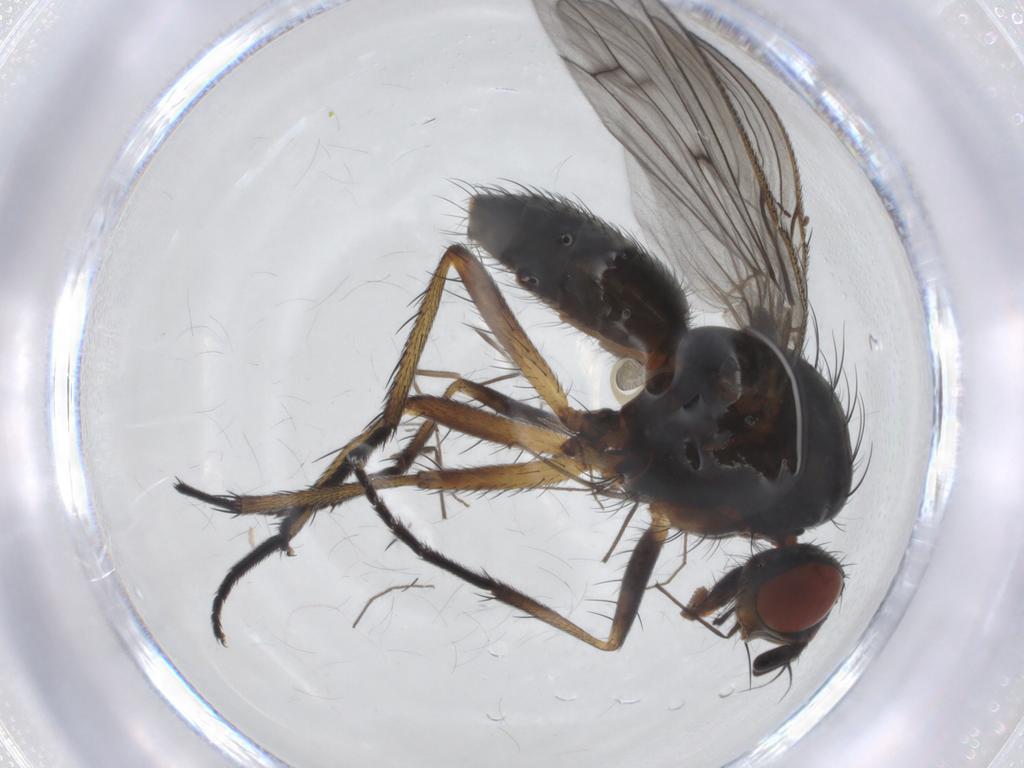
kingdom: Animalia
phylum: Arthropoda
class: Insecta
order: Diptera
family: Anthomyiidae
